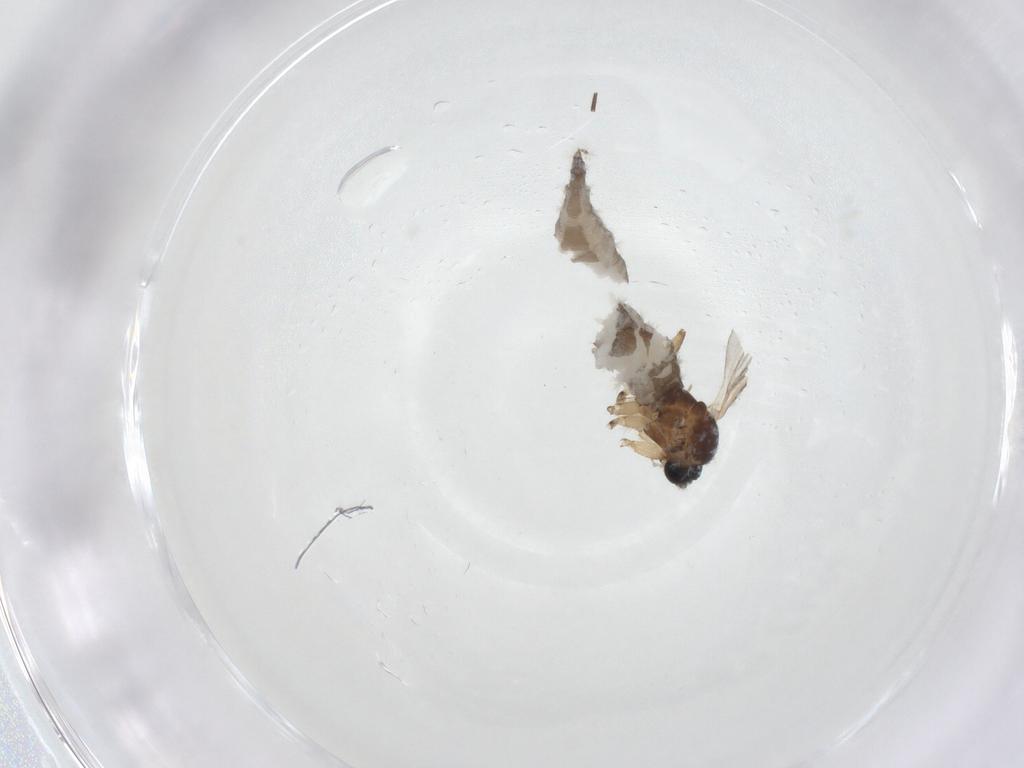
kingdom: Animalia
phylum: Arthropoda
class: Insecta
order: Diptera
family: Sciaridae
